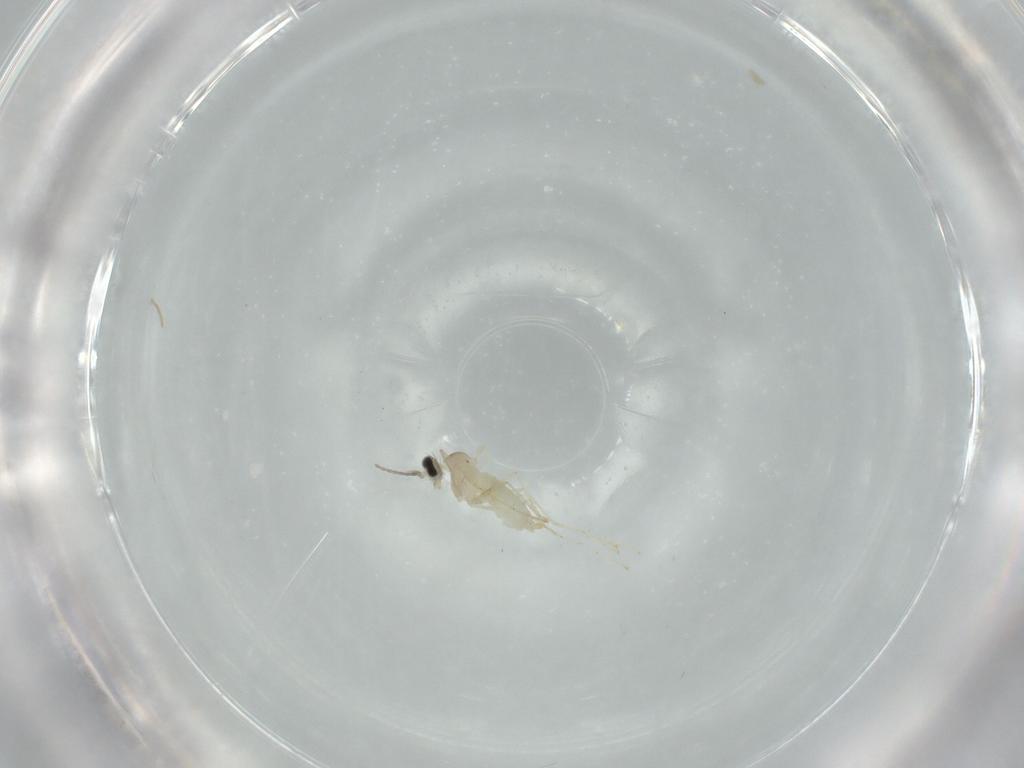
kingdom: Animalia
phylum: Arthropoda
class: Insecta
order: Diptera
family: Cecidomyiidae
